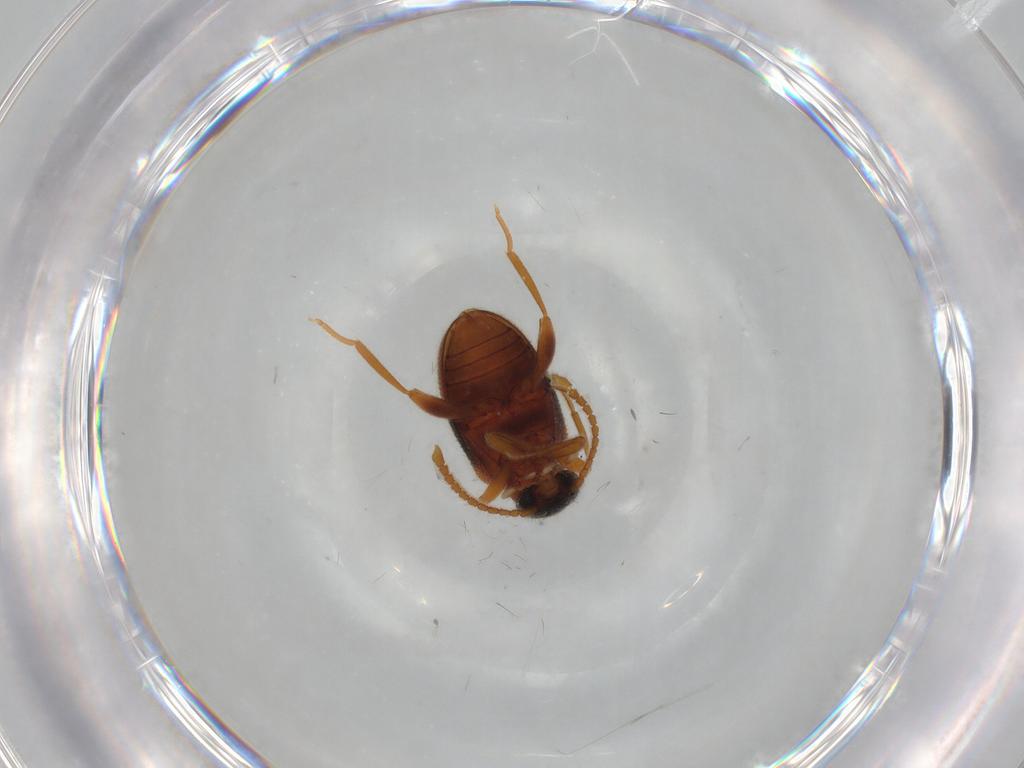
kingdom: Animalia
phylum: Arthropoda
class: Insecta
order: Coleoptera
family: Aderidae
